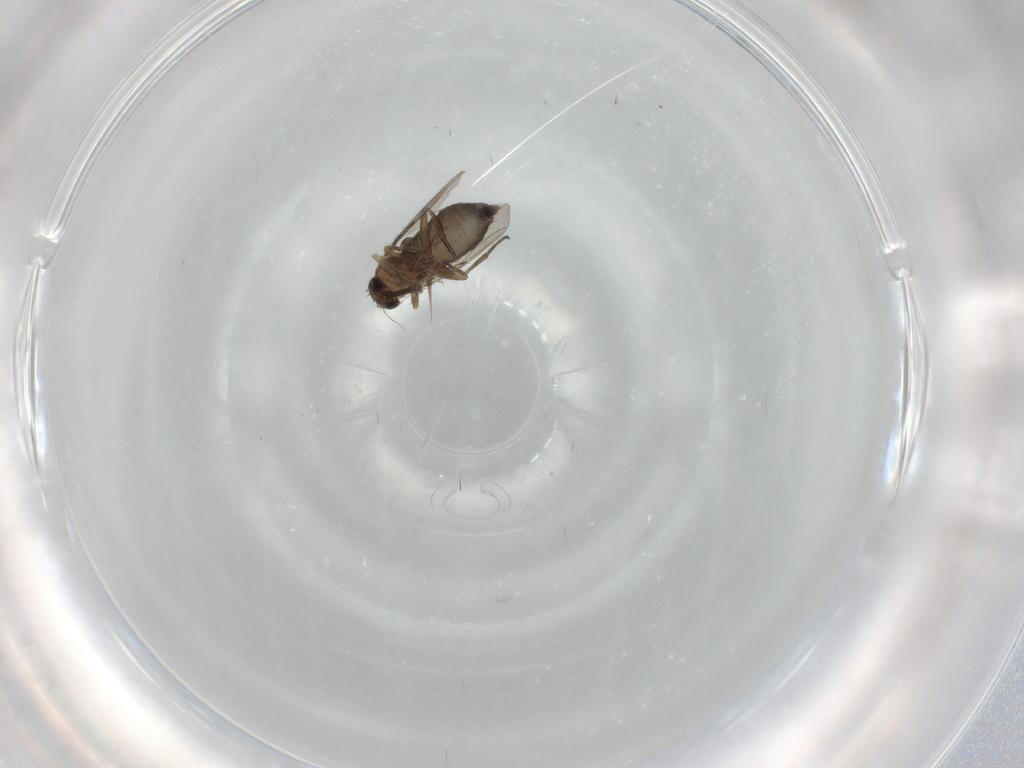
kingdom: Animalia
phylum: Arthropoda
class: Insecta
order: Diptera
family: Phoridae
